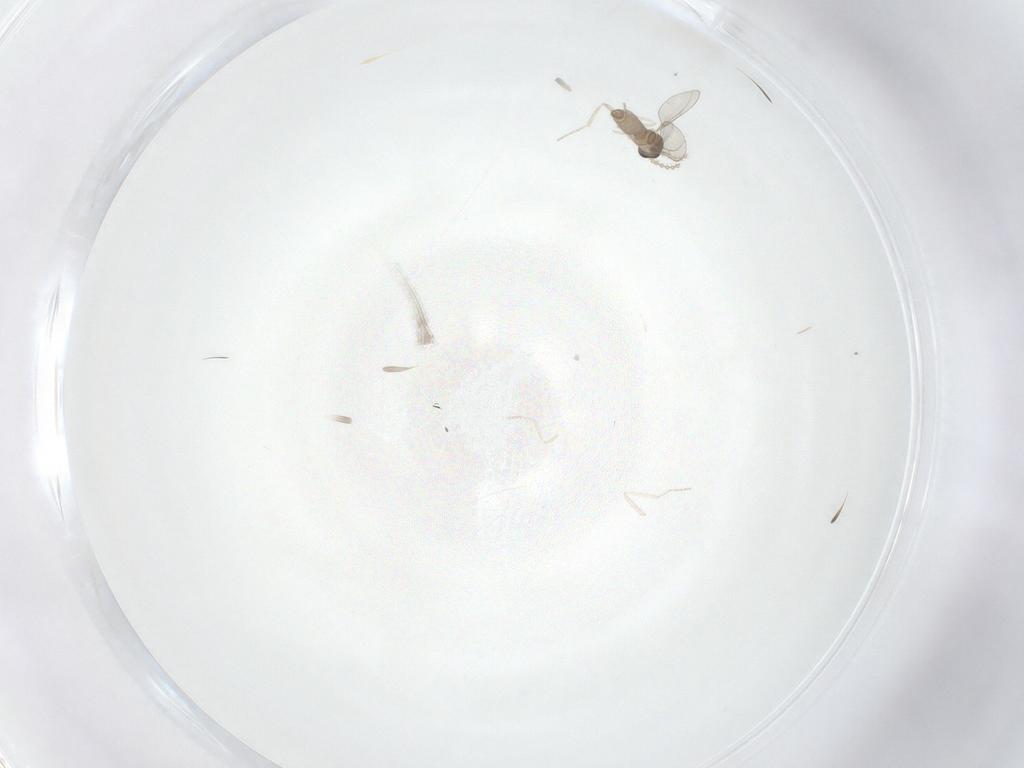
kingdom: Animalia
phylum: Arthropoda
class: Insecta
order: Diptera
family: Cecidomyiidae
